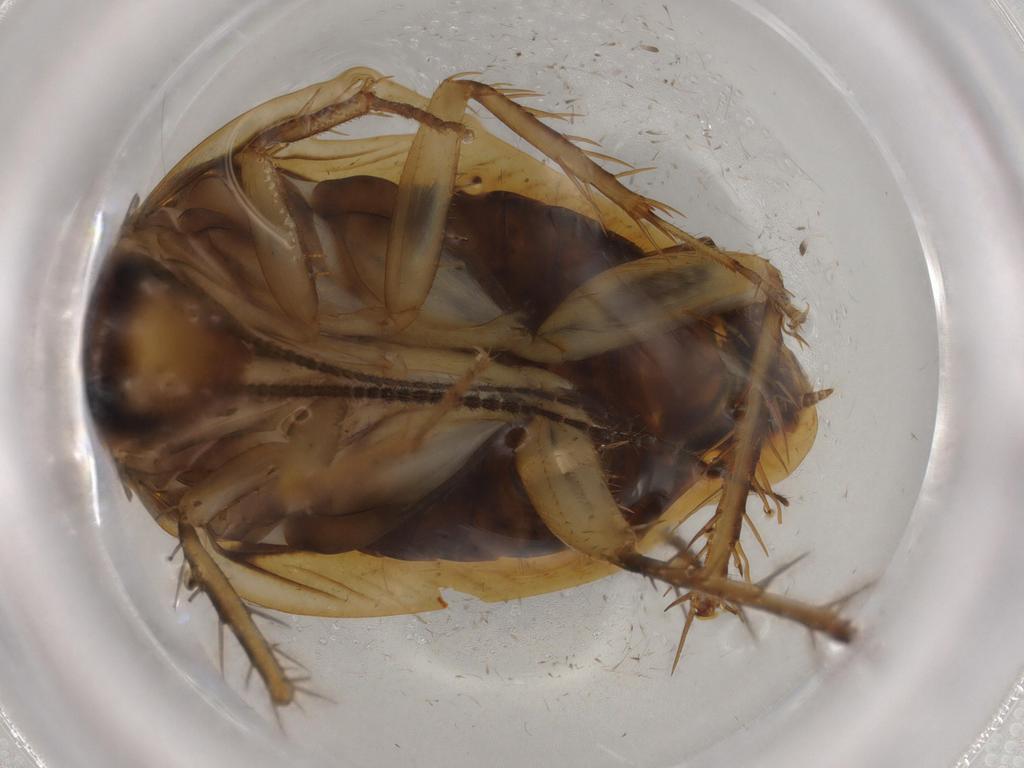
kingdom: Animalia
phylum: Arthropoda
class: Insecta
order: Blattodea
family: Ectobiidae
